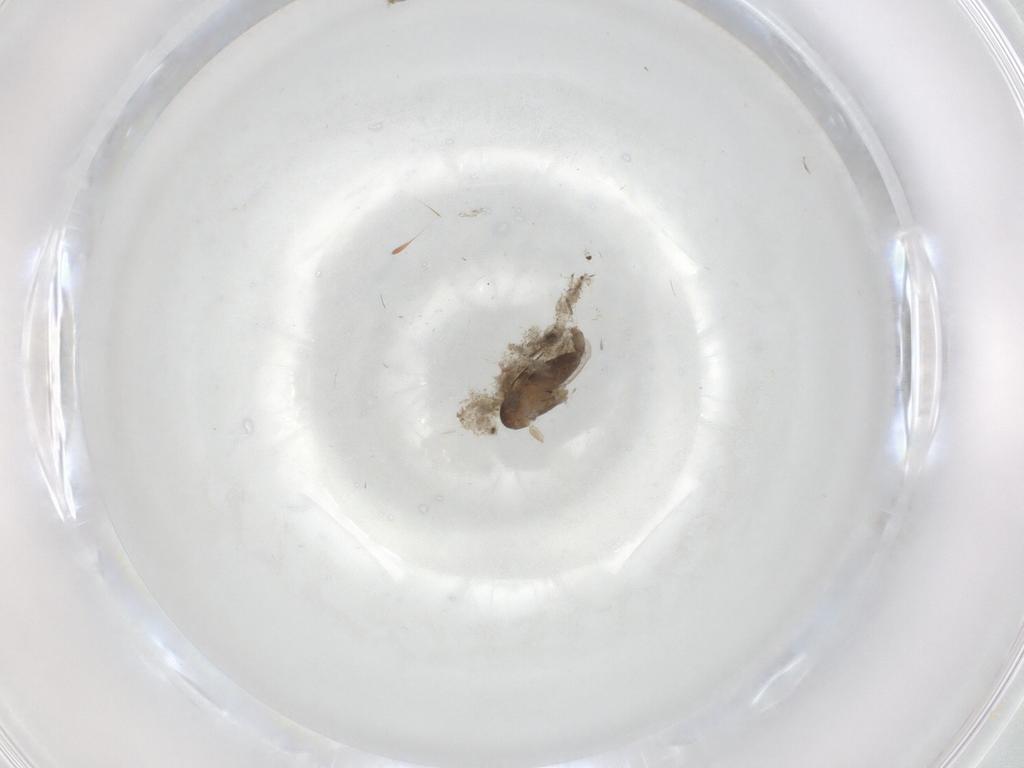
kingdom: Animalia
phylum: Arthropoda
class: Insecta
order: Diptera
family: Phoridae
